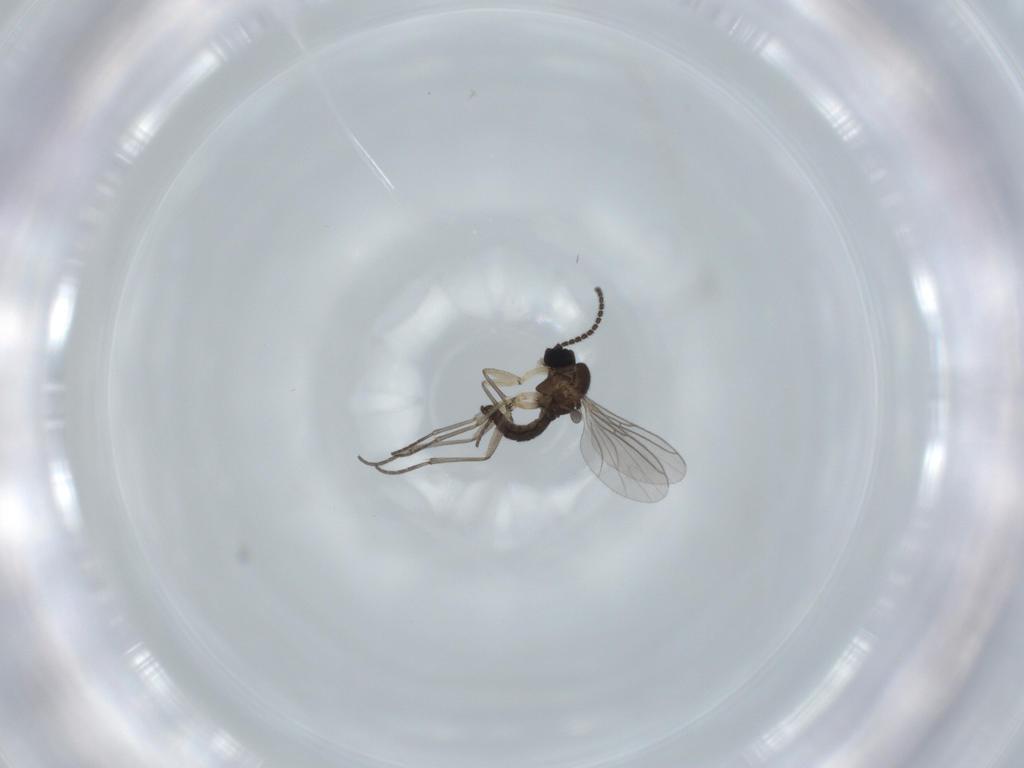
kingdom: Animalia
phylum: Arthropoda
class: Insecta
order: Diptera
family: Cecidomyiidae
